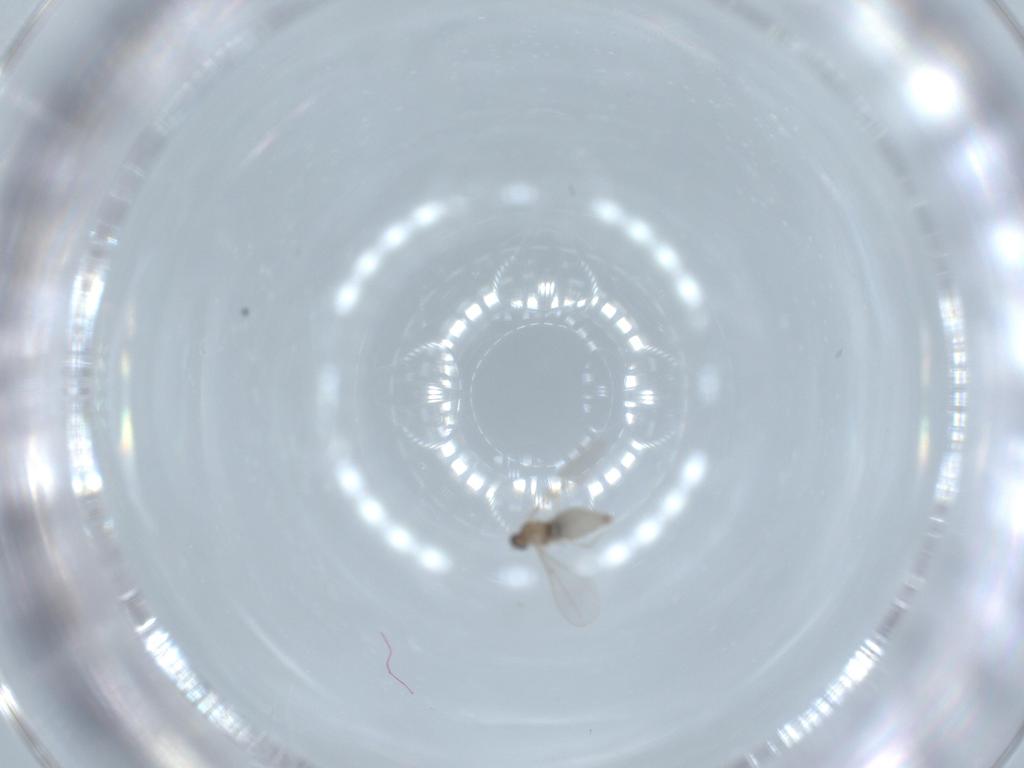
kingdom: Animalia
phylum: Arthropoda
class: Insecta
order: Diptera
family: Cecidomyiidae
